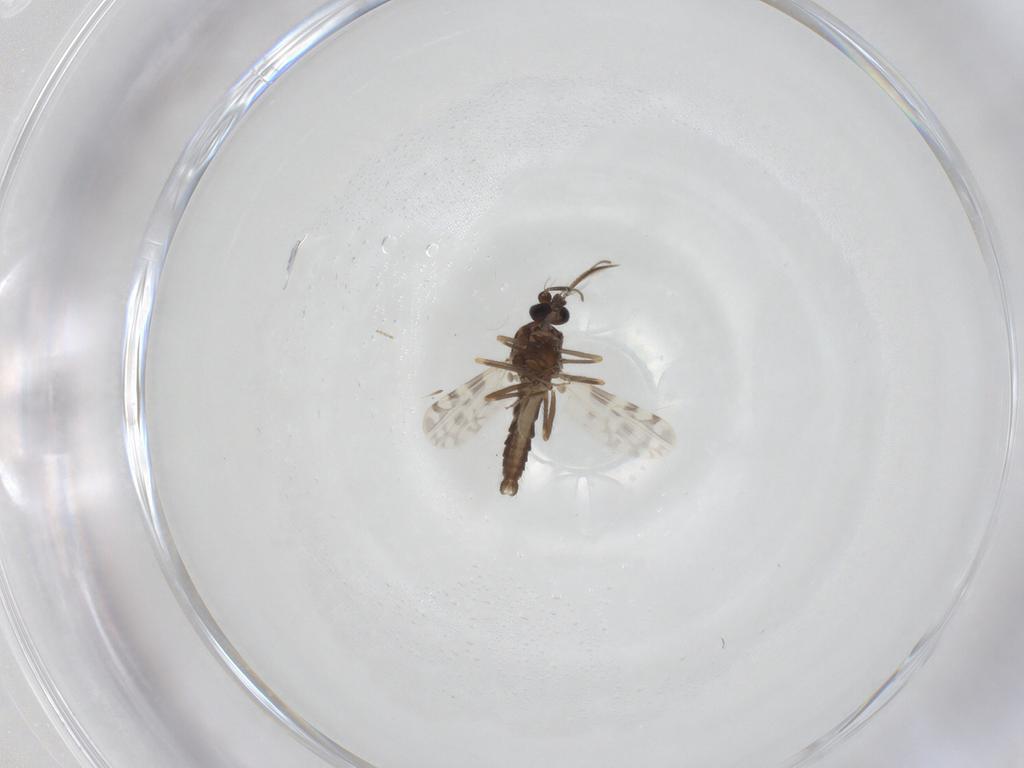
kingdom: Animalia
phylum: Arthropoda
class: Insecta
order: Diptera
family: Ceratopogonidae
